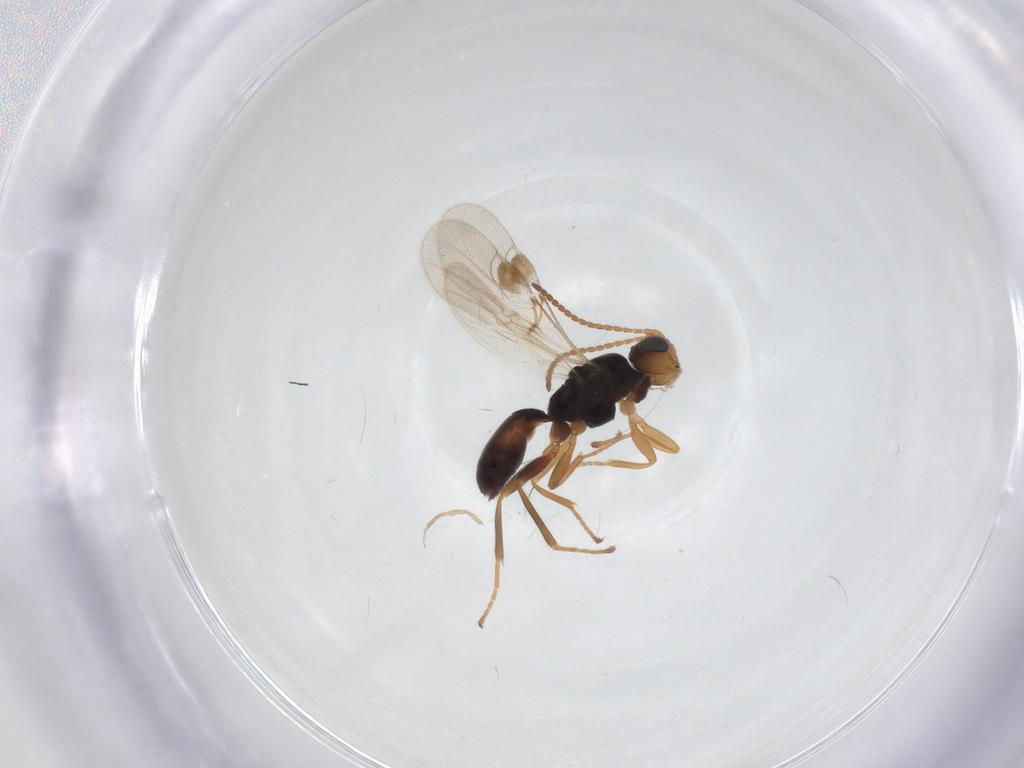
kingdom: Animalia
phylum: Arthropoda
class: Insecta
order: Hymenoptera
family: Braconidae
